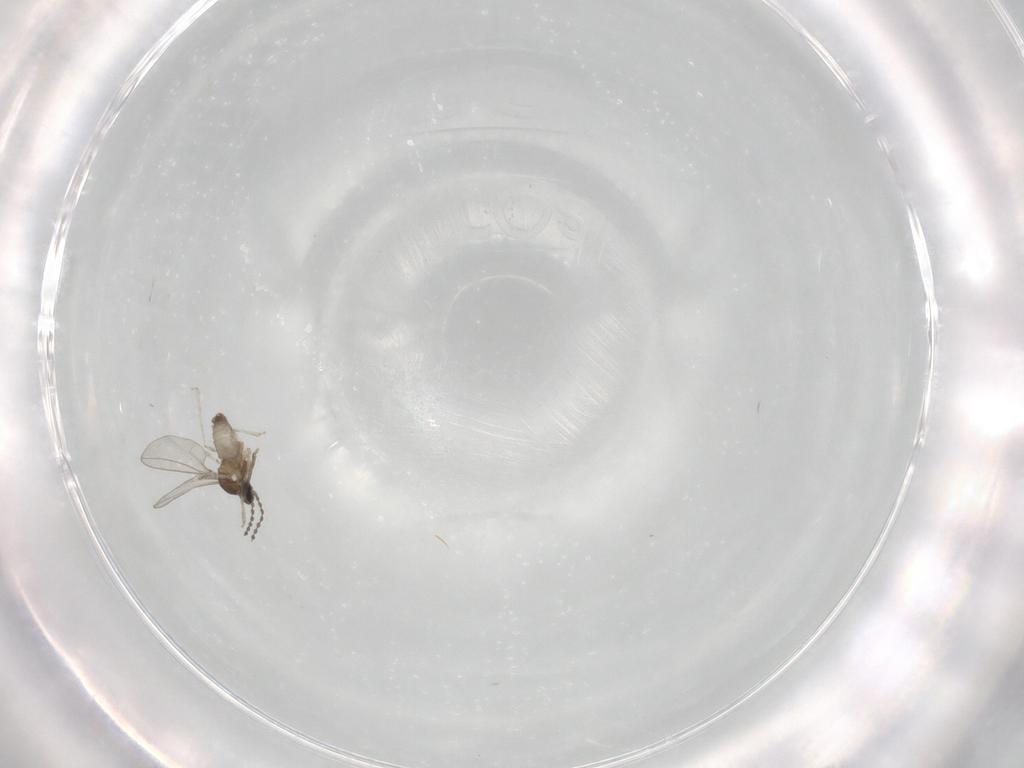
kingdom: Animalia
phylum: Arthropoda
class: Insecta
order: Diptera
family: Cecidomyiidae
